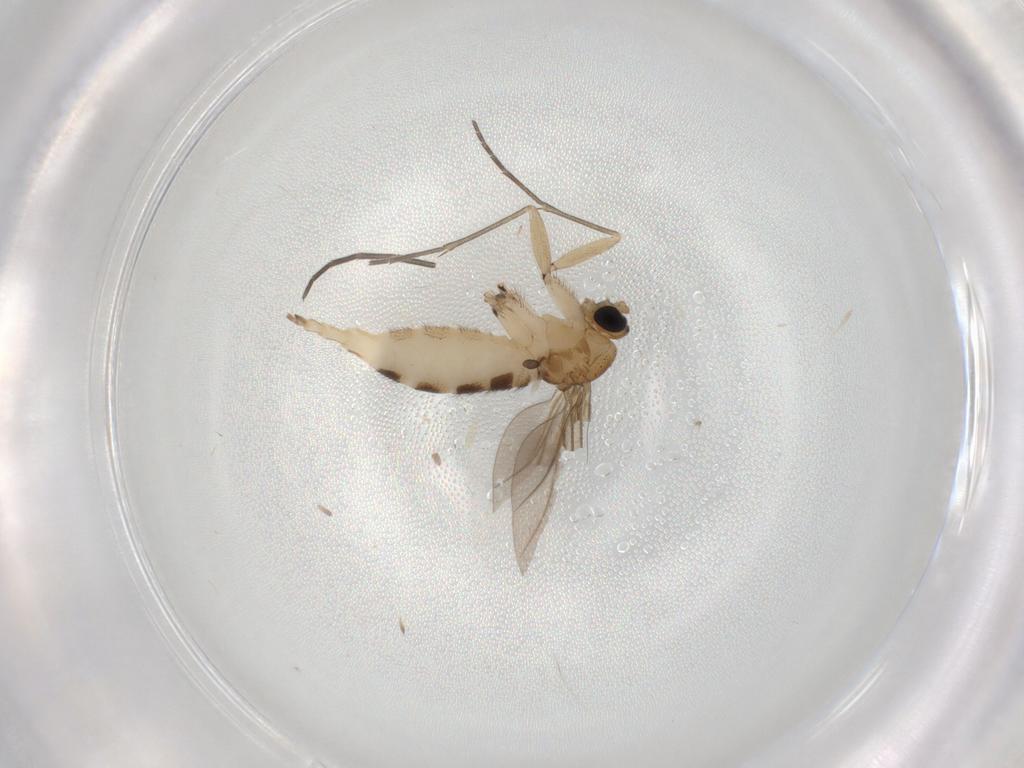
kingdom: Animalia
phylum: Arthropoda
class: Insecta
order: Diptera
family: Sciaridae
